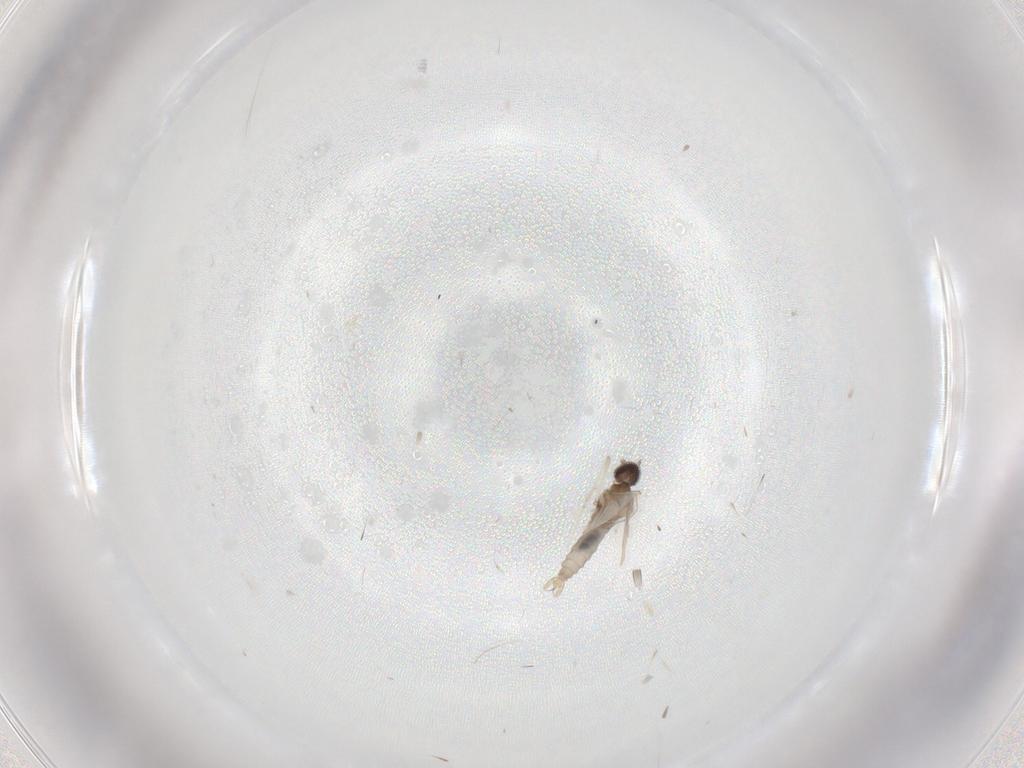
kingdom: Animalia
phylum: Arthropoda
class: Insecta
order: Diptera
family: Cecidomyiidae
